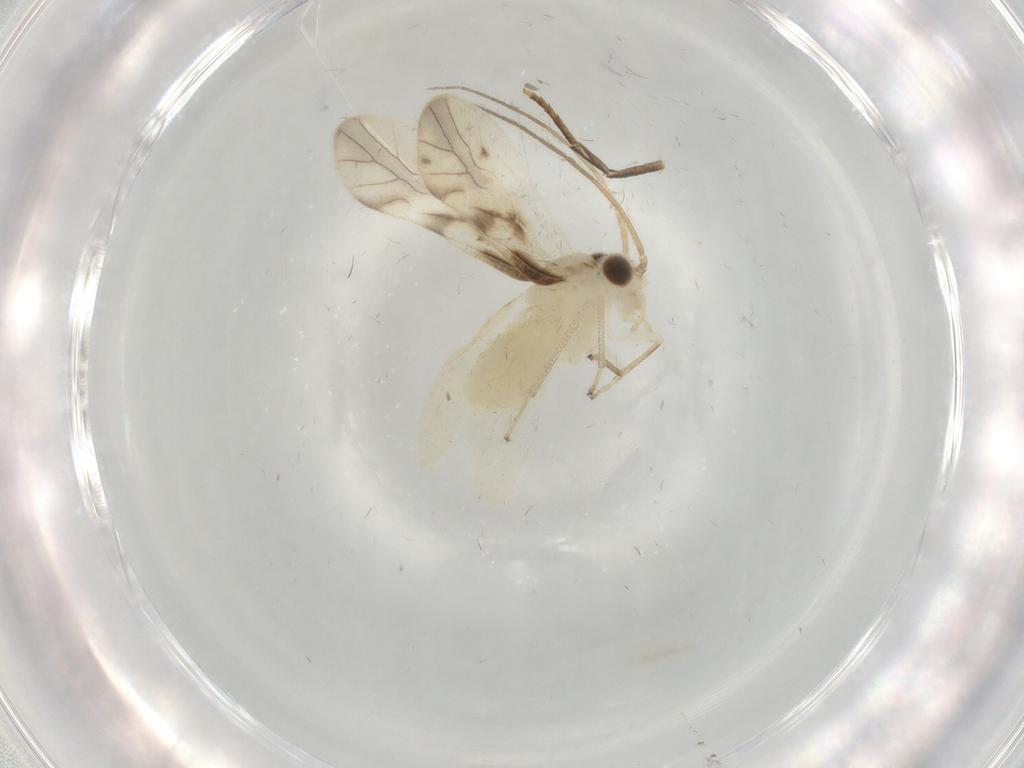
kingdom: Animalia
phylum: Arthropoda
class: Insecta
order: Psocodea
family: Caeciliusidae
